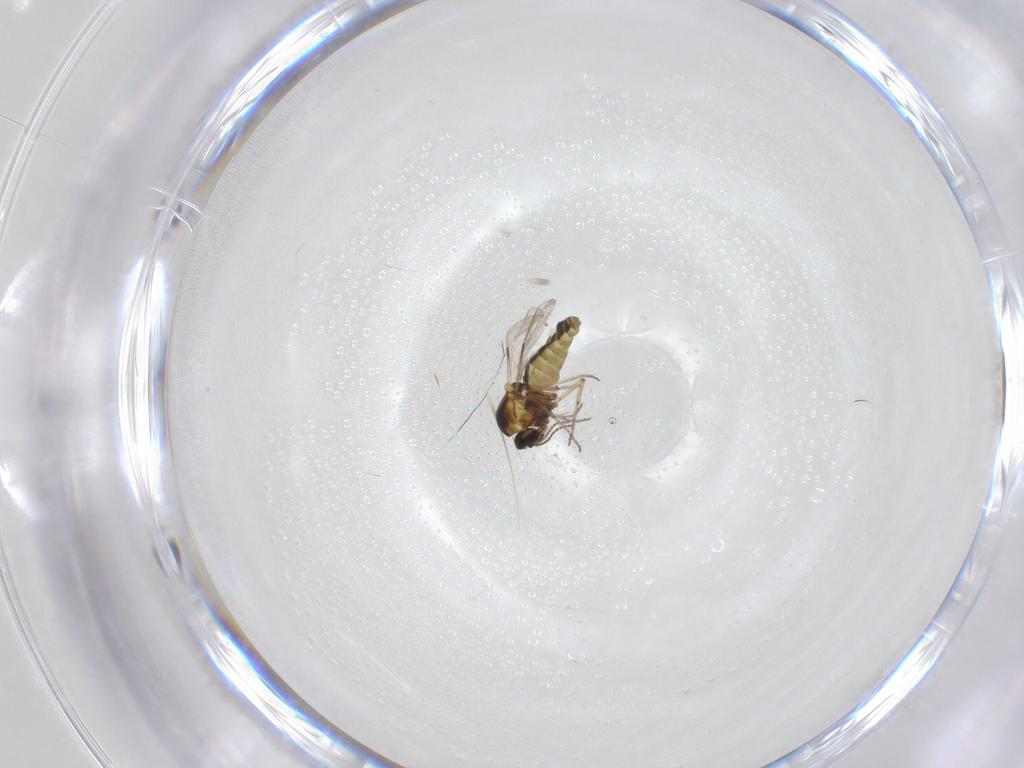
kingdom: Animalia
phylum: Arthropoda
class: Insecta
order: Diptera
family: Ceratopogonidae
